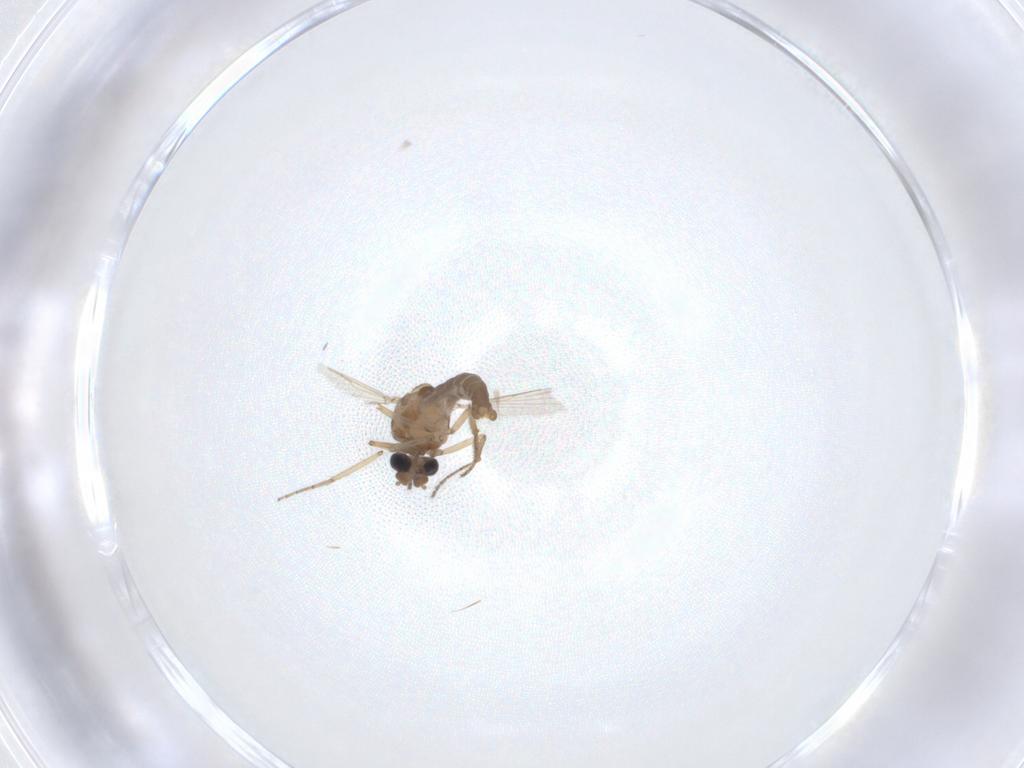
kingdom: Animalia
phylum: Arthropoda
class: Insecta
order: Diptera
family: Ceratopogonidae
